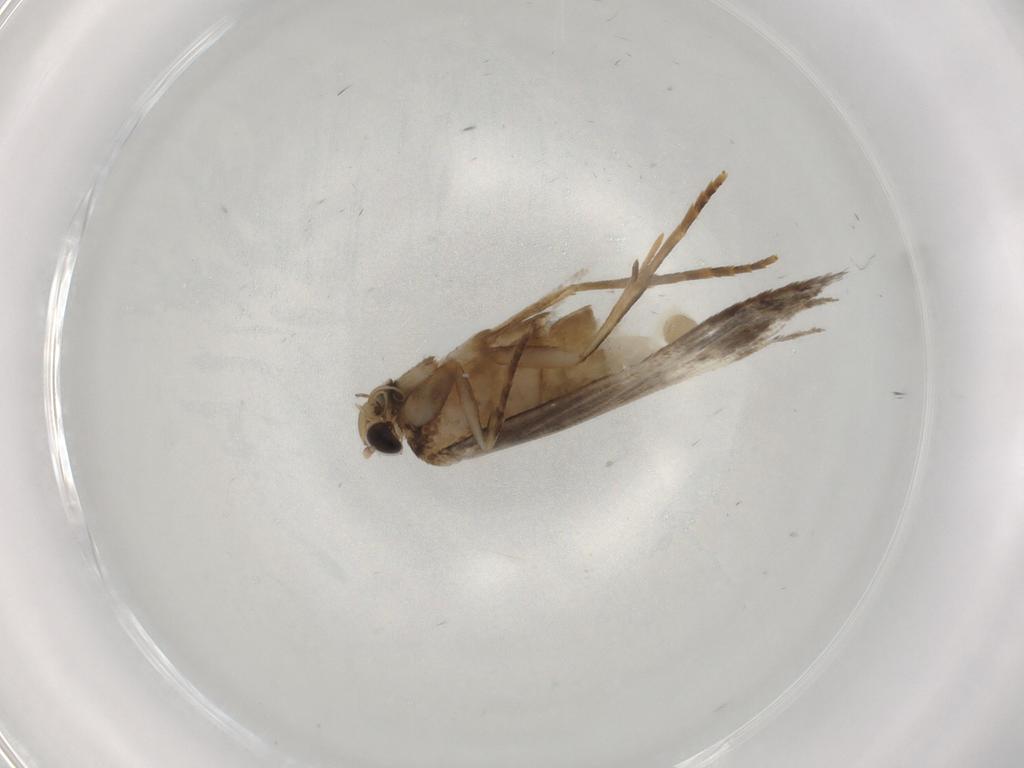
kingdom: Animalia
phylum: Arthropoda
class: Insecta
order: Lepidoptera
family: Tineidae
